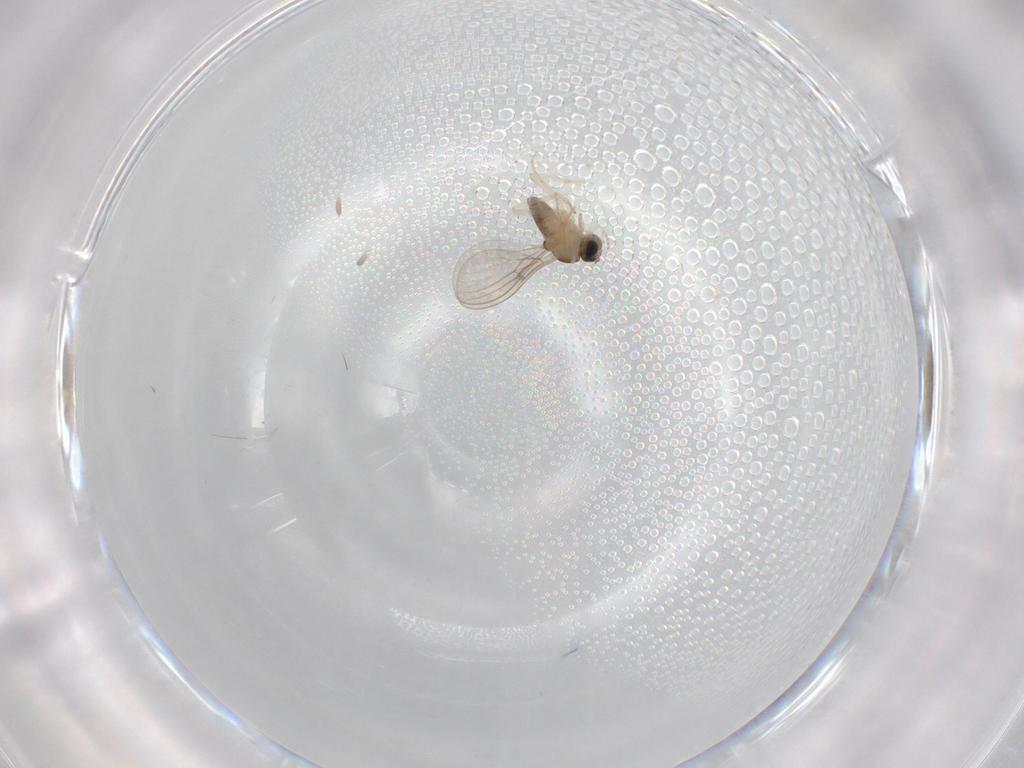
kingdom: Animalia
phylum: Arthropoda
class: Insecta
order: Diptera
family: Cecidomyiidae
